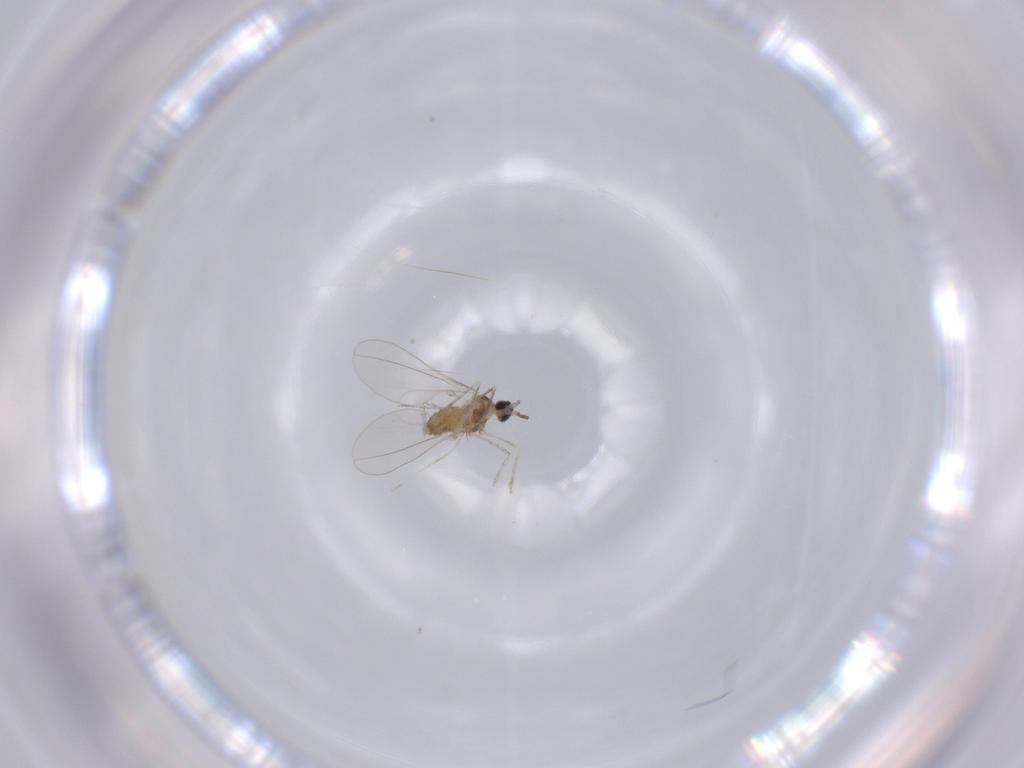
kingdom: Animalia
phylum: Arthropoda
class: Insecta
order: Diptera
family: Cecidomyiidae
